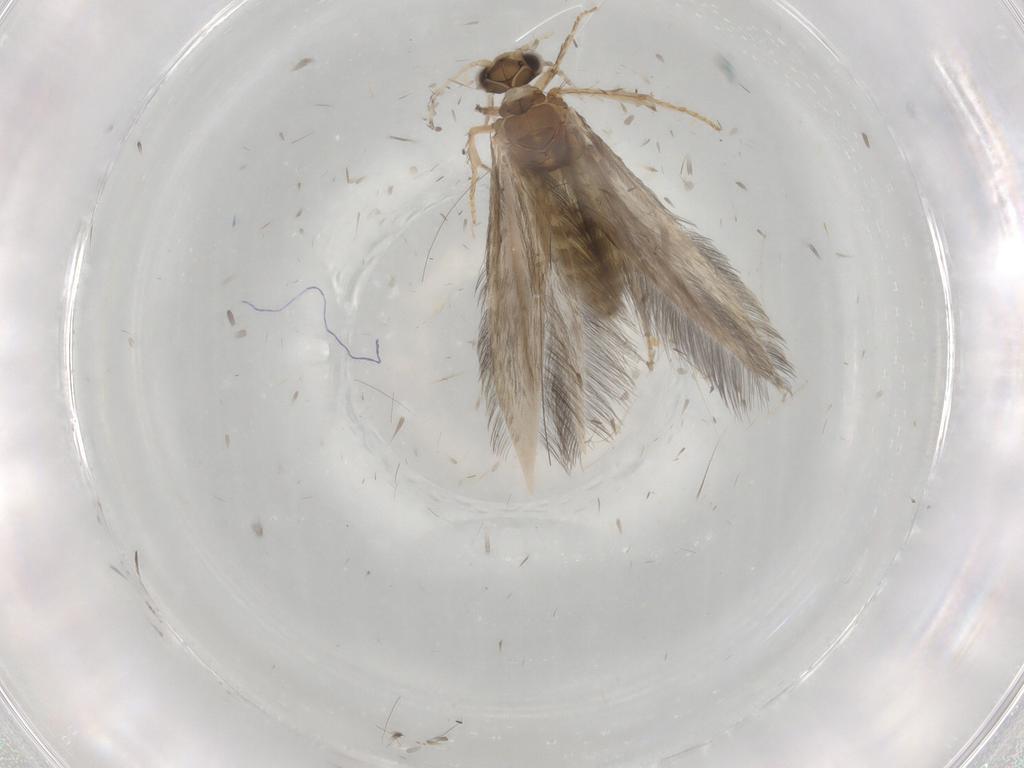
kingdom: Animalia
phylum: Arthropoda
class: Insecta
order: Trichoptera
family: Hydroptilidae
